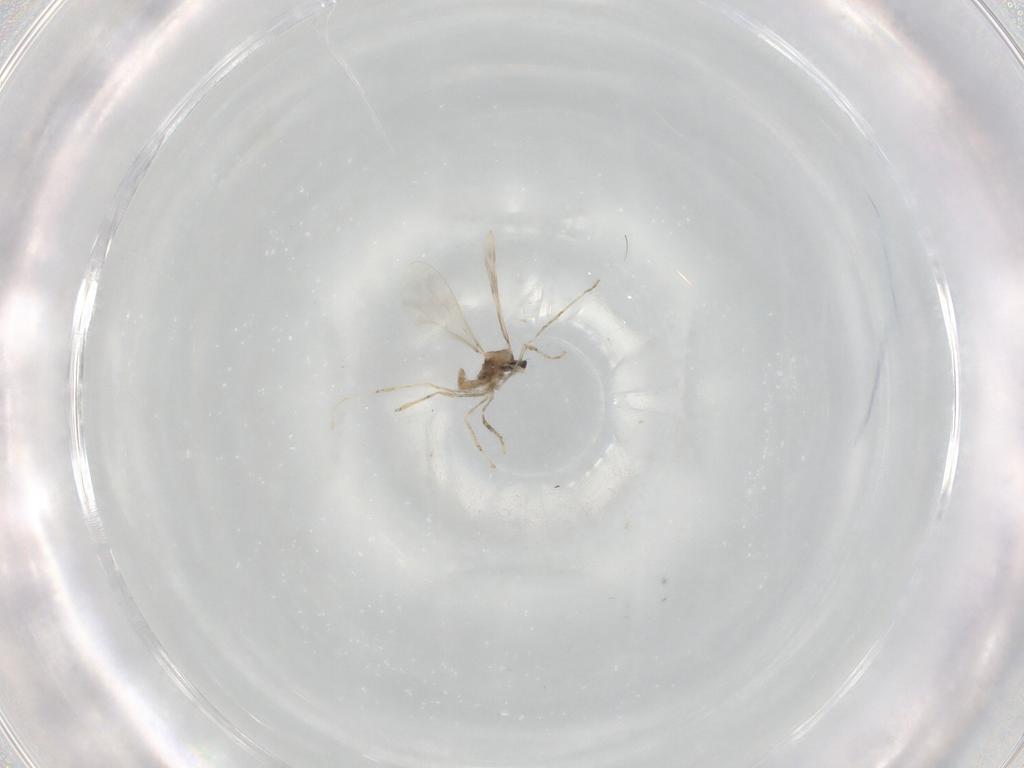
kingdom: Animalia
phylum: Arthropoda
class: Insecta
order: Diptera
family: Cecidomyiidae
